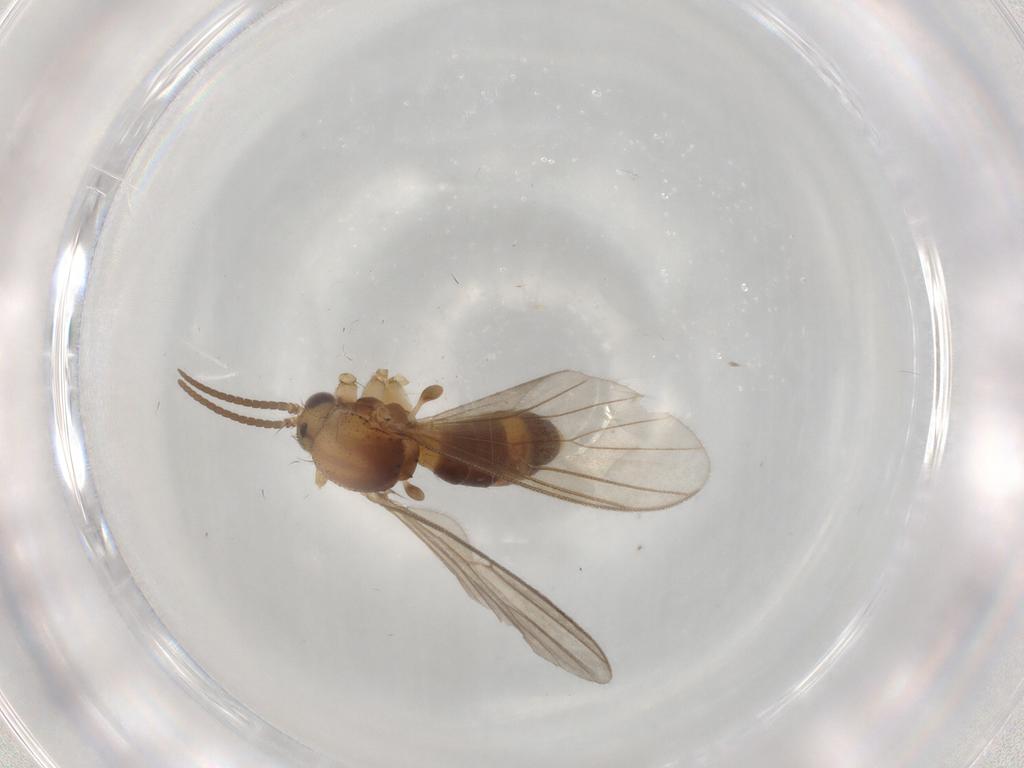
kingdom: Animalia
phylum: Arthropoda
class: Insecta
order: Diptera
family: Mycetophilidae
